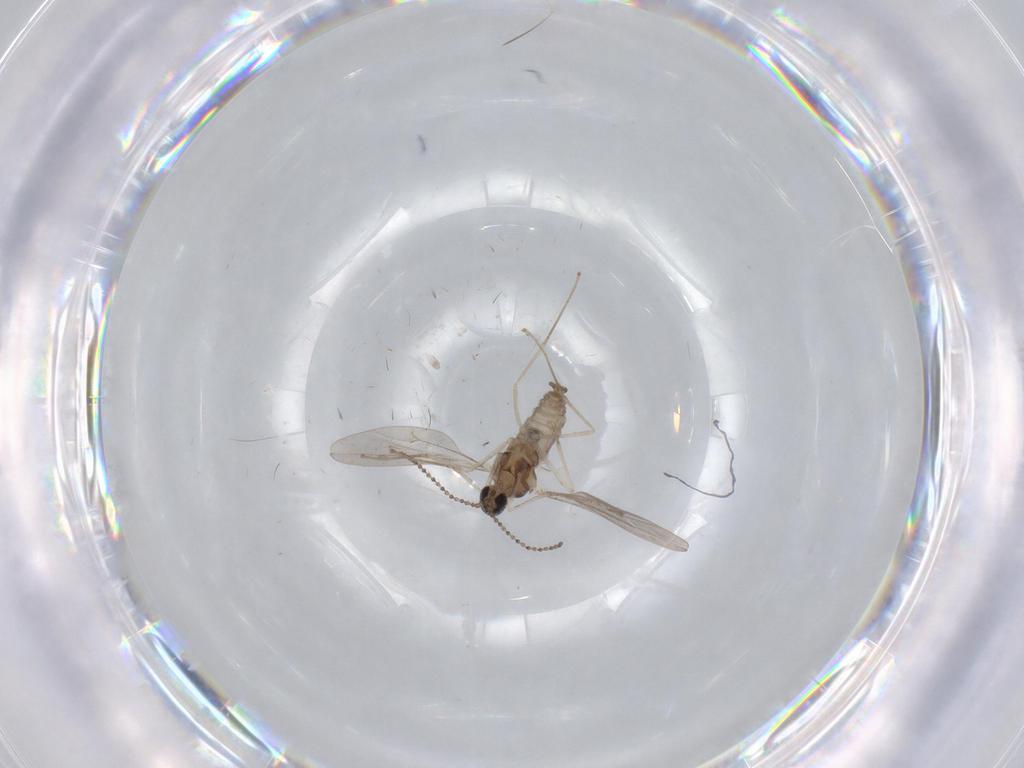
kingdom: Animalia
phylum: Arthropoda
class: Insecta
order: Diptera
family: Cecidomyiidae
